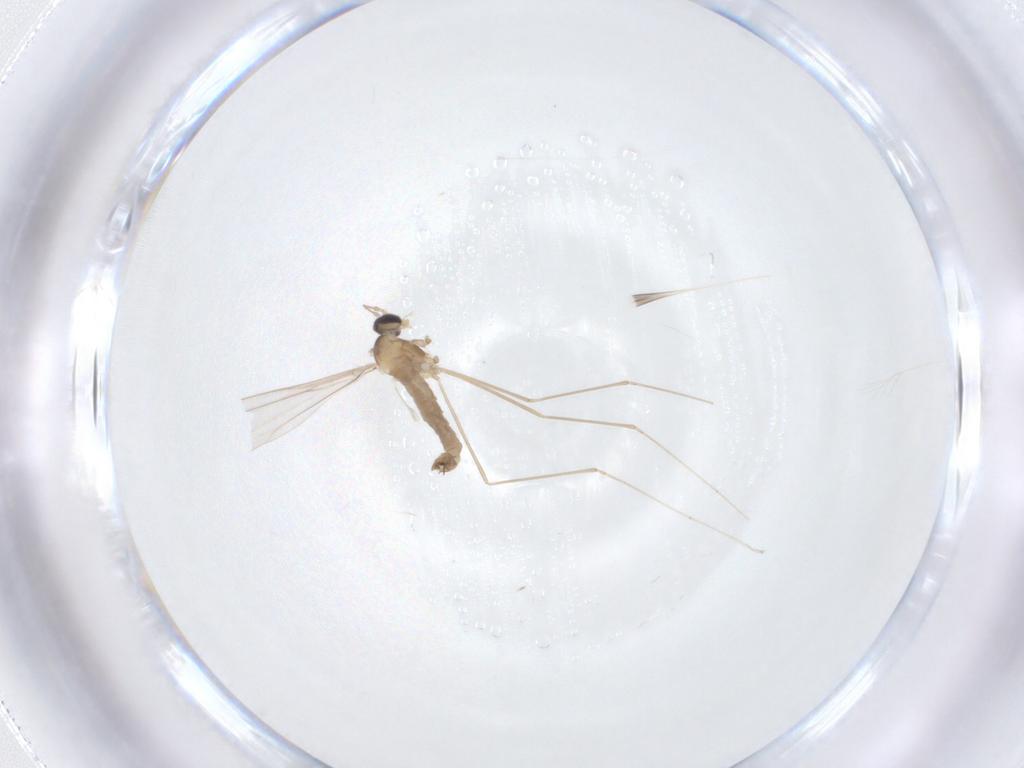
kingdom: Animalia
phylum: Arthropoda
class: Insecta
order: Diptera
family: Cecidomyiidae
